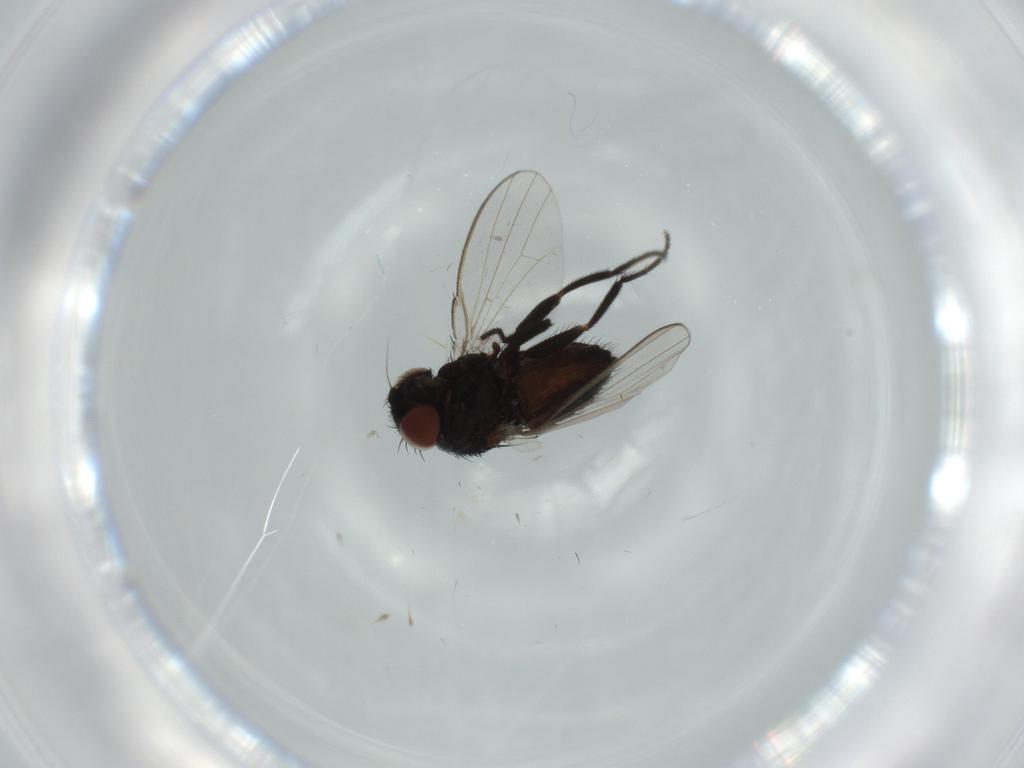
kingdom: Animalia
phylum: Arthropoda
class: Insecta
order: Diptera
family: Milichiidae
